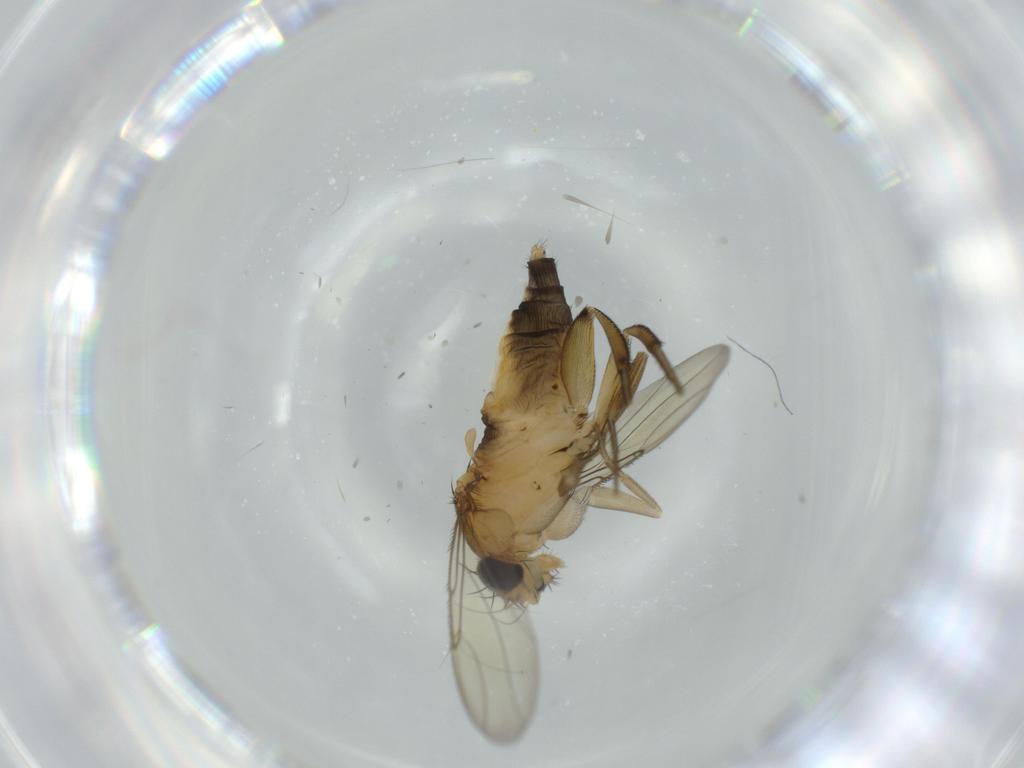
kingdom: Animalia
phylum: Arthropoda
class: Insecta
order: Diptera
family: Phoridae
